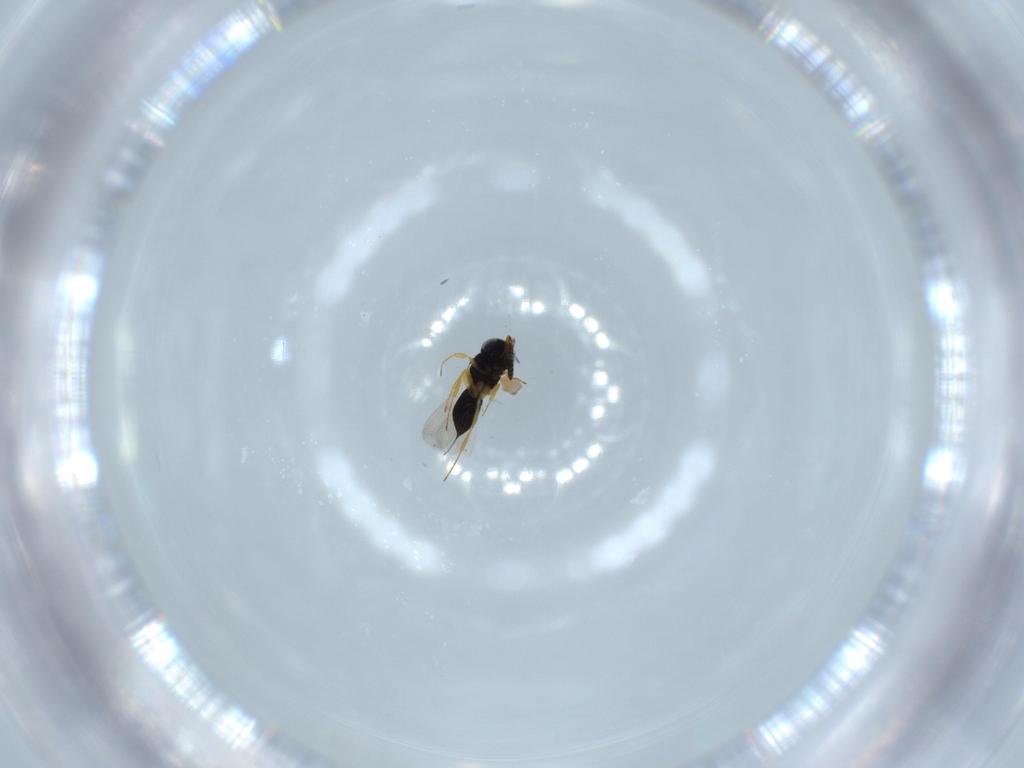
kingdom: Animalia
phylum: Arthropoda
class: Insecta
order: Hymenoptera
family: Scelionidae
